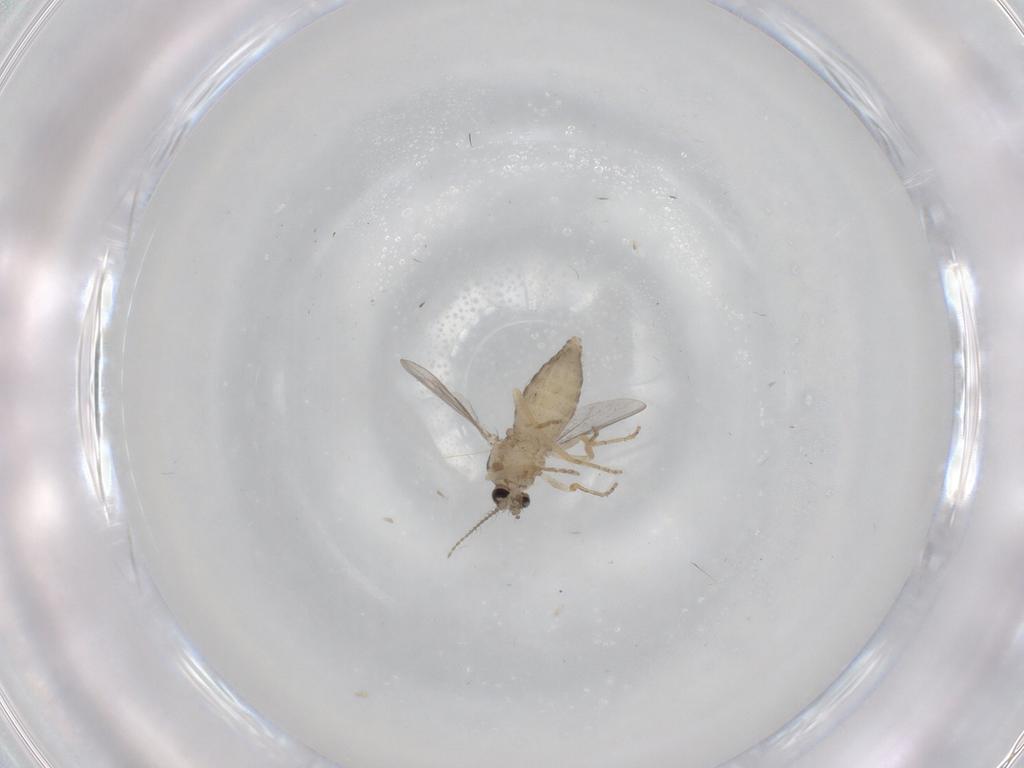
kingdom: Animalia
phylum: Arthropoda
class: Insecta
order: Diptera
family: Ceratopogonidae
